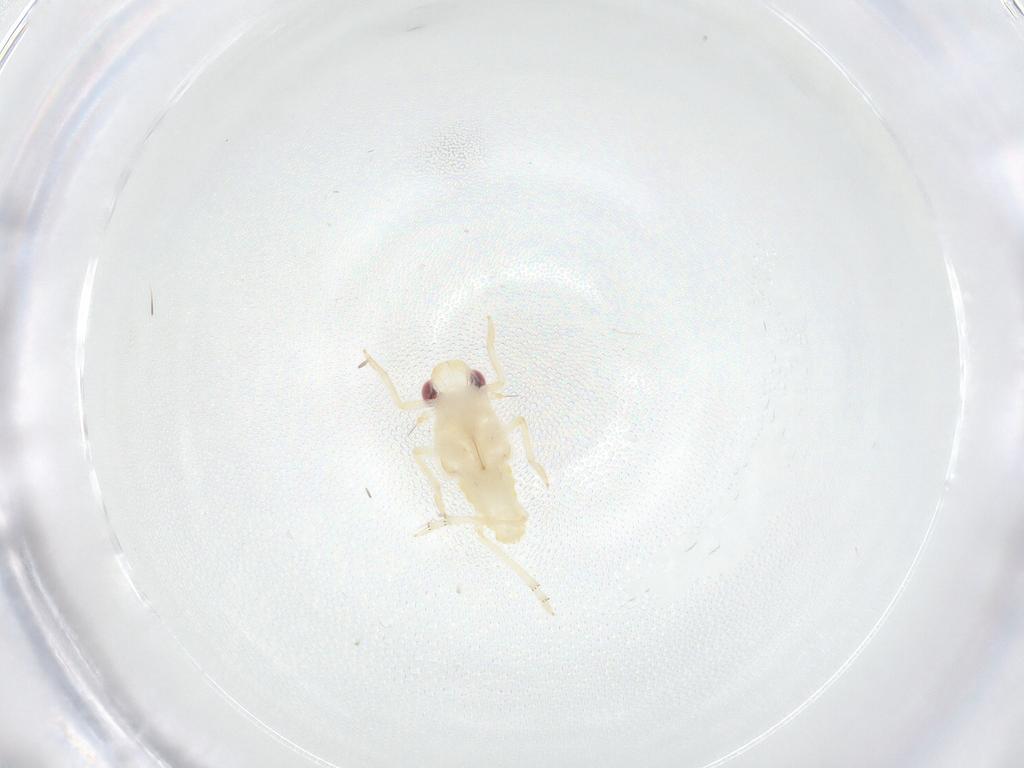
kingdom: Animalia
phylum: Arthropoda
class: Insecta
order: Hemiptera
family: Fulgoroidea_incertae_sedis
